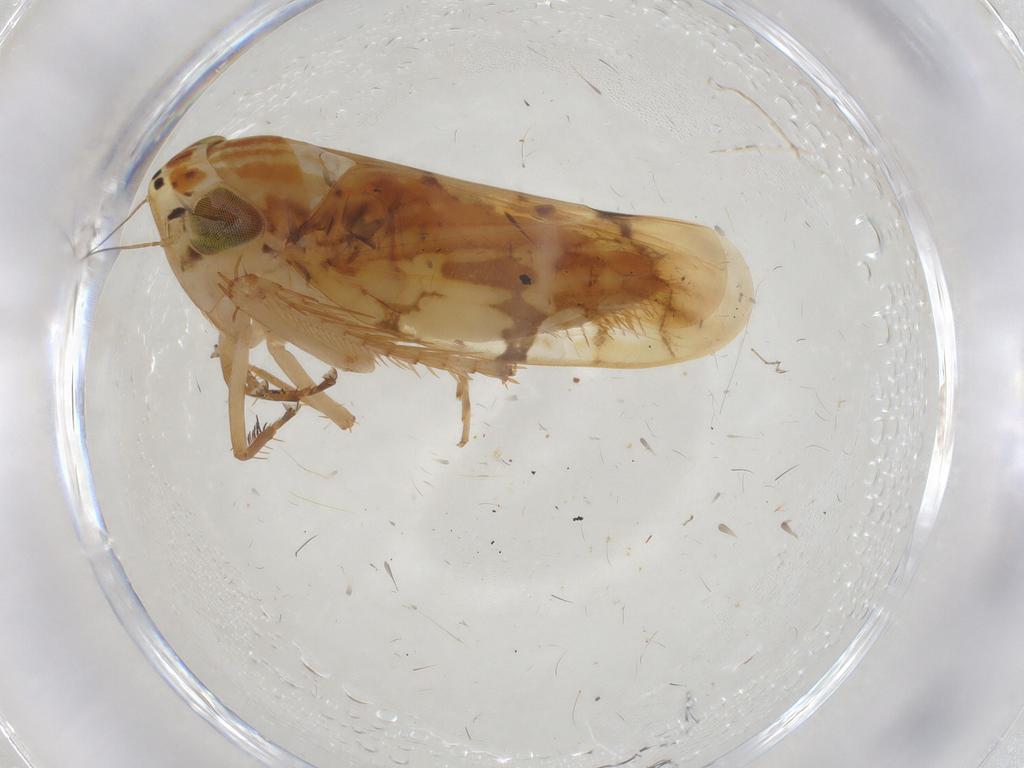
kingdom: Animalia
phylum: Arthropoda
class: Insecta
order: Hemiptera
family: Cicadellidae
